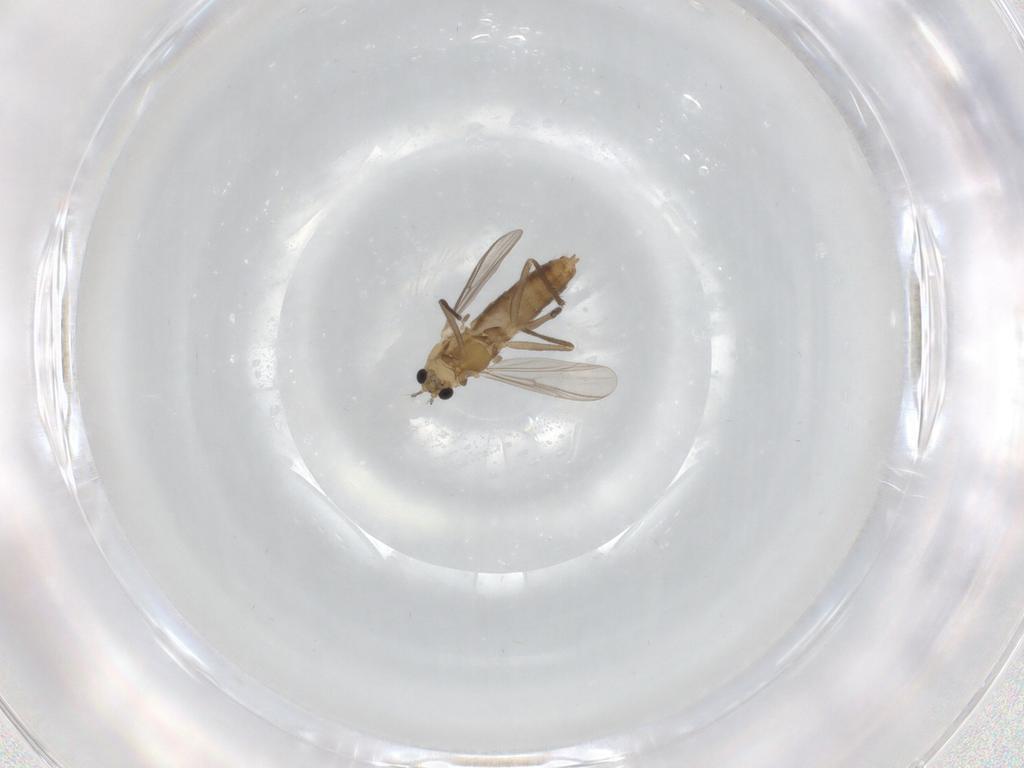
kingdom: Animalia
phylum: Arthropoda
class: Insecta
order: Diptera
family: Chironomidae
